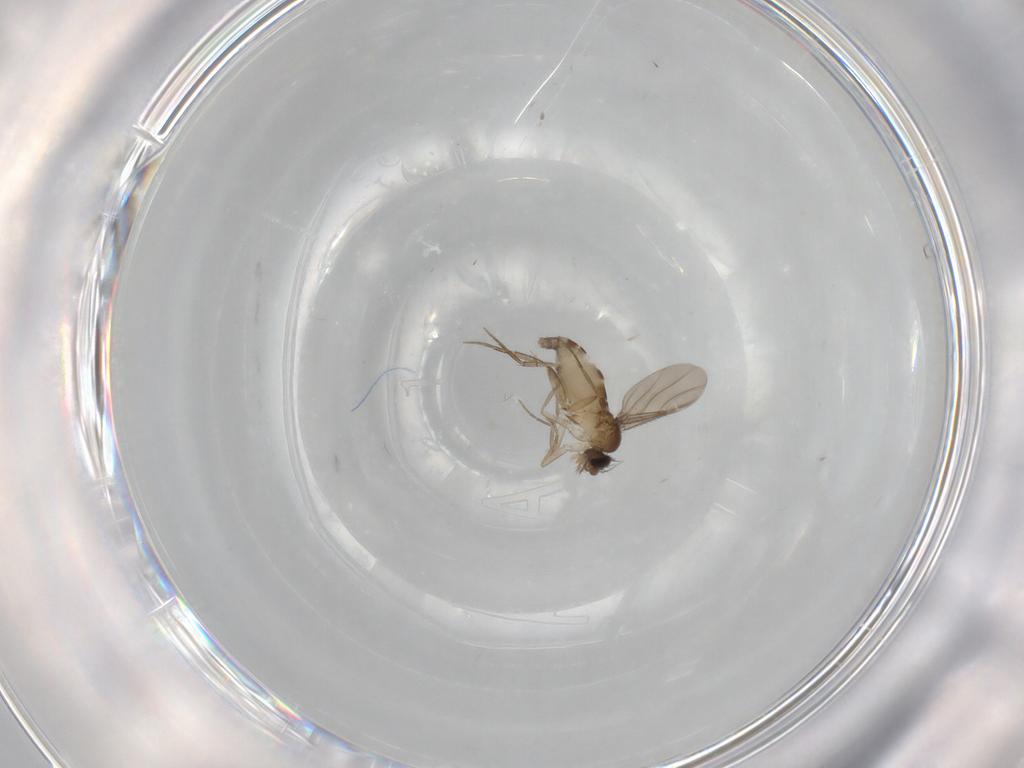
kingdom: Animalia
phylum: Arthropoda
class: Insecta
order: Diptera
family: Phoridae
